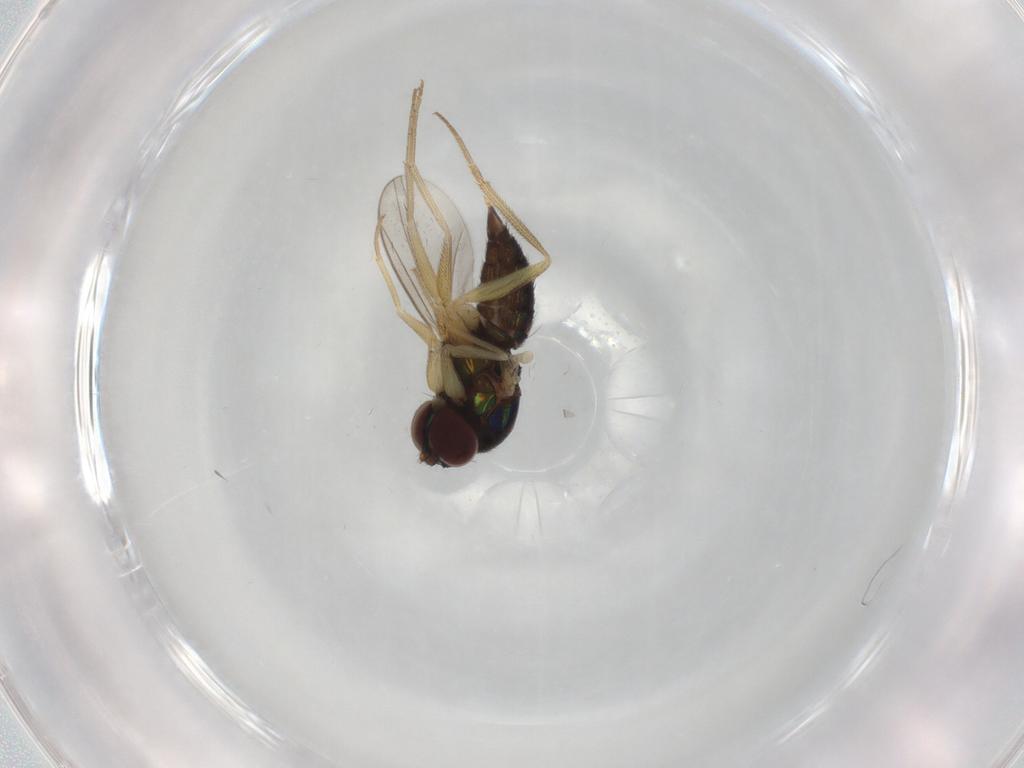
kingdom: Animalia
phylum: Arthropoda
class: Insecta
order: Diptera
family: Dolichopodidae
